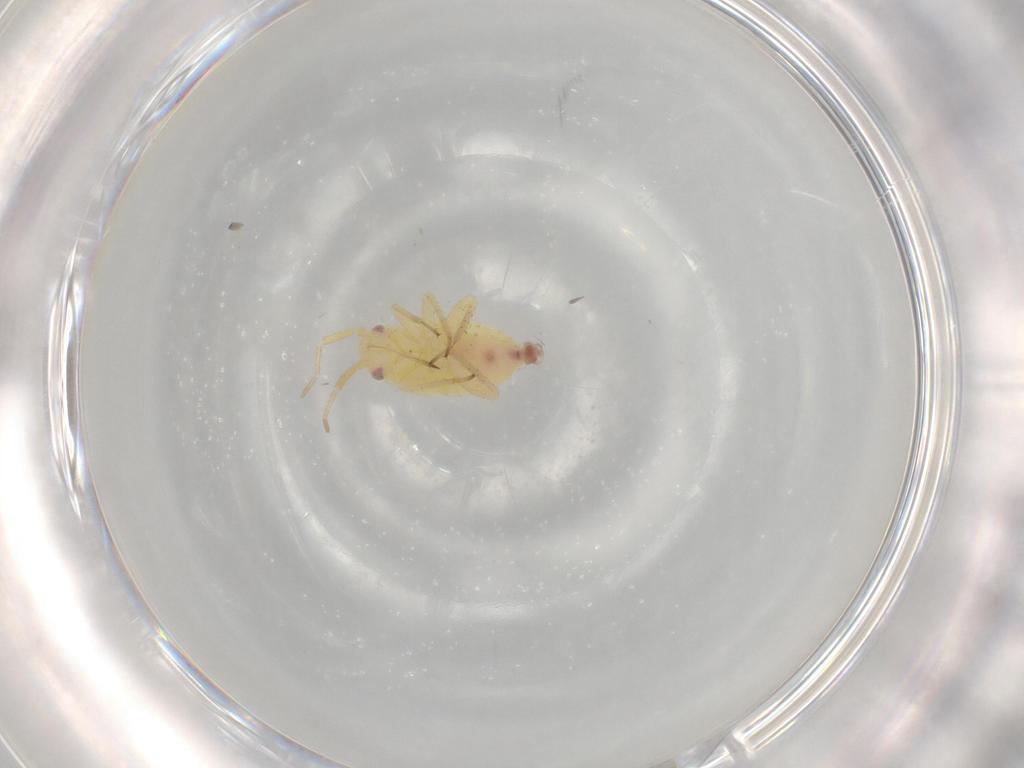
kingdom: Animalia
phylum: Arthropoda
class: Insecta
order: Hemiptera
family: Miridae
